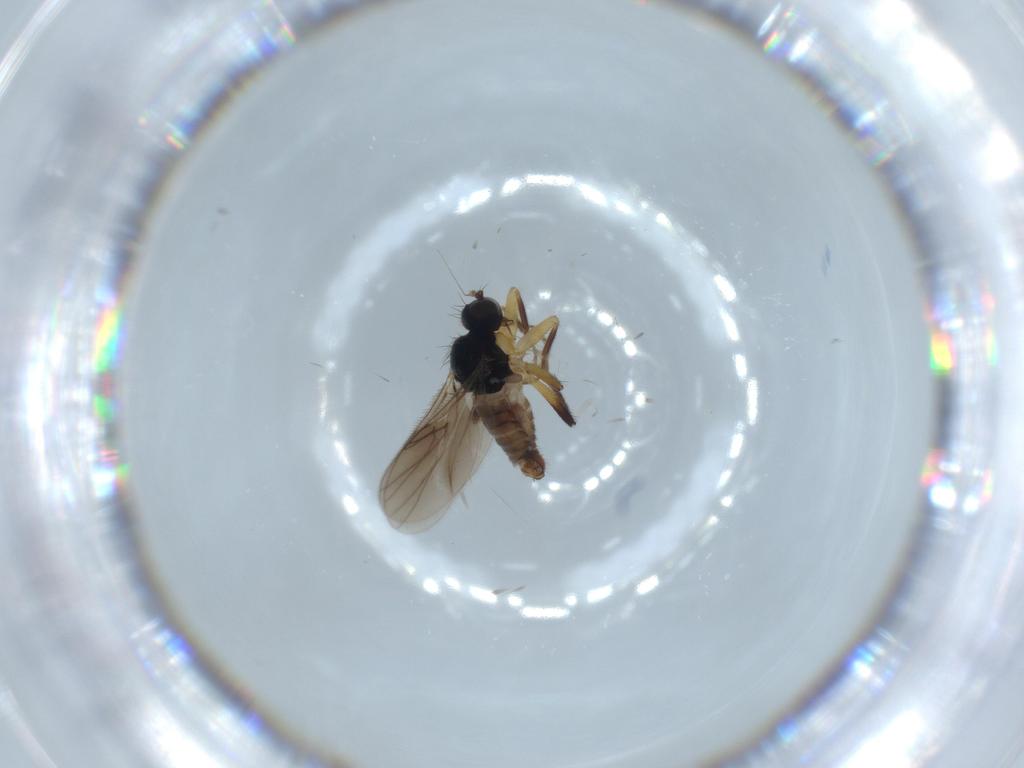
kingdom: Animalia
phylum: Arthropoda
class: Insecta
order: Diptera
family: Hybotidae
